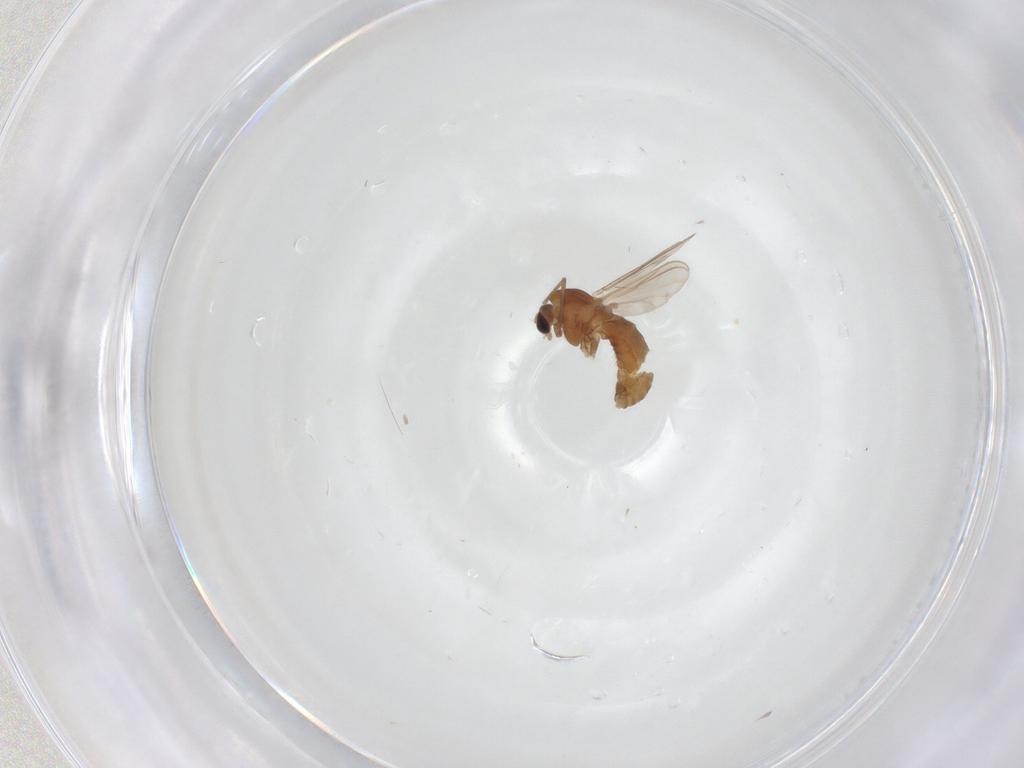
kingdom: Animalia
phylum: Arthropoda
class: Insecta
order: Diptera
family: Chironomidae
